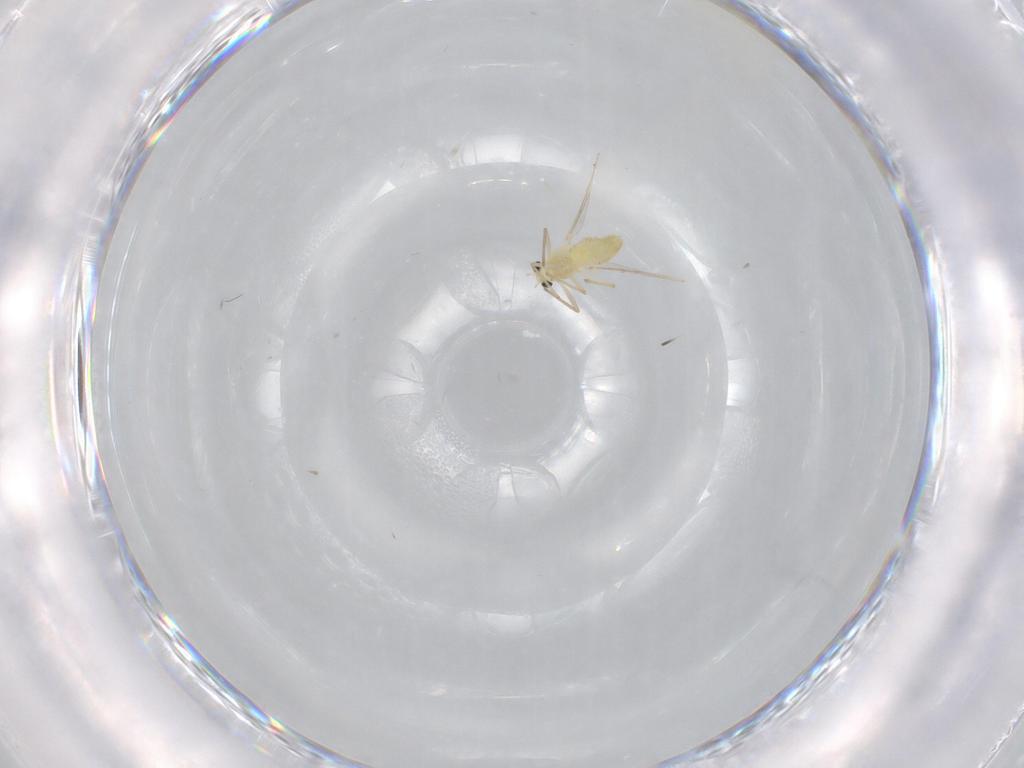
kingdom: Animalia
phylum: Arthropoda
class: Insecta
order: Diptera
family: Chironomidae
